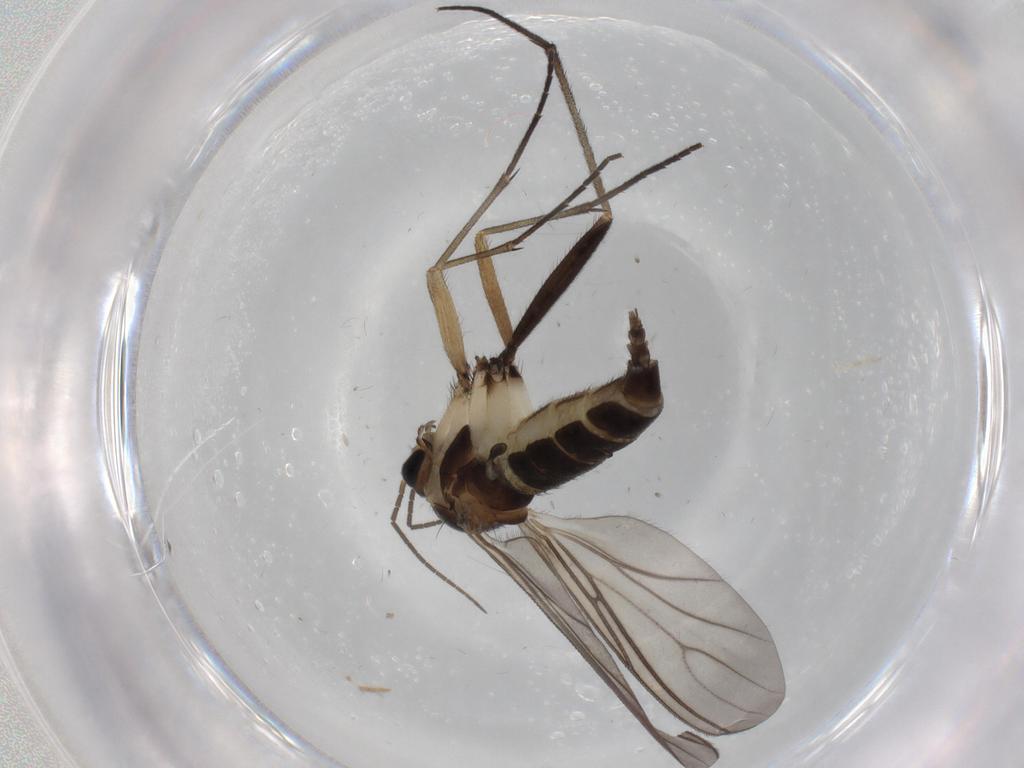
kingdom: Animalia
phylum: Arthropoda
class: Insecta
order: Diptera
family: Sciaridae
